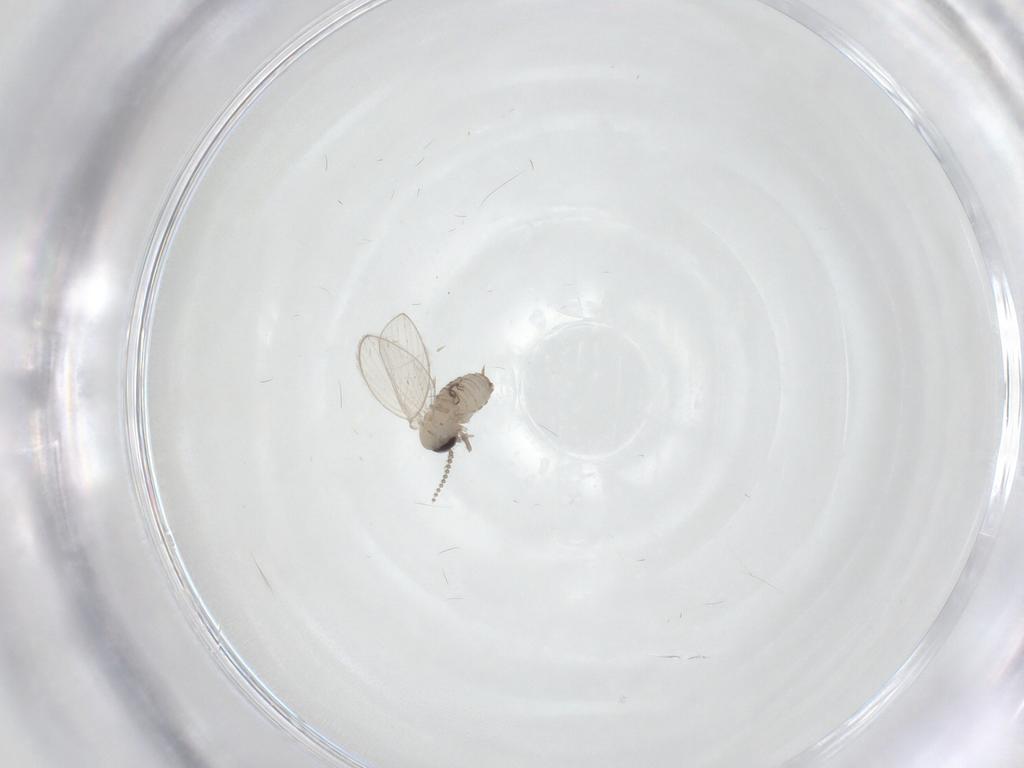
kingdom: Animalia
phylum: Arthropoda
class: Insecta
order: Diptera
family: Psychodidae
